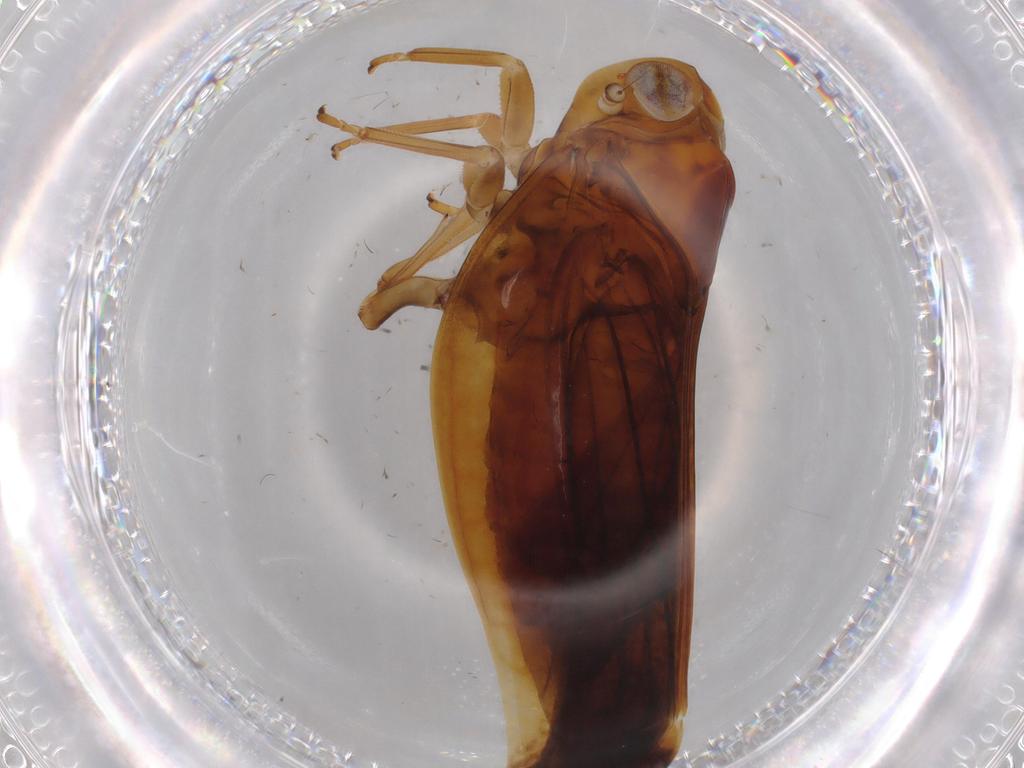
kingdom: Animalia
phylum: Arthropoda
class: Insecta
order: Hemiptera
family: Nogodinidae
